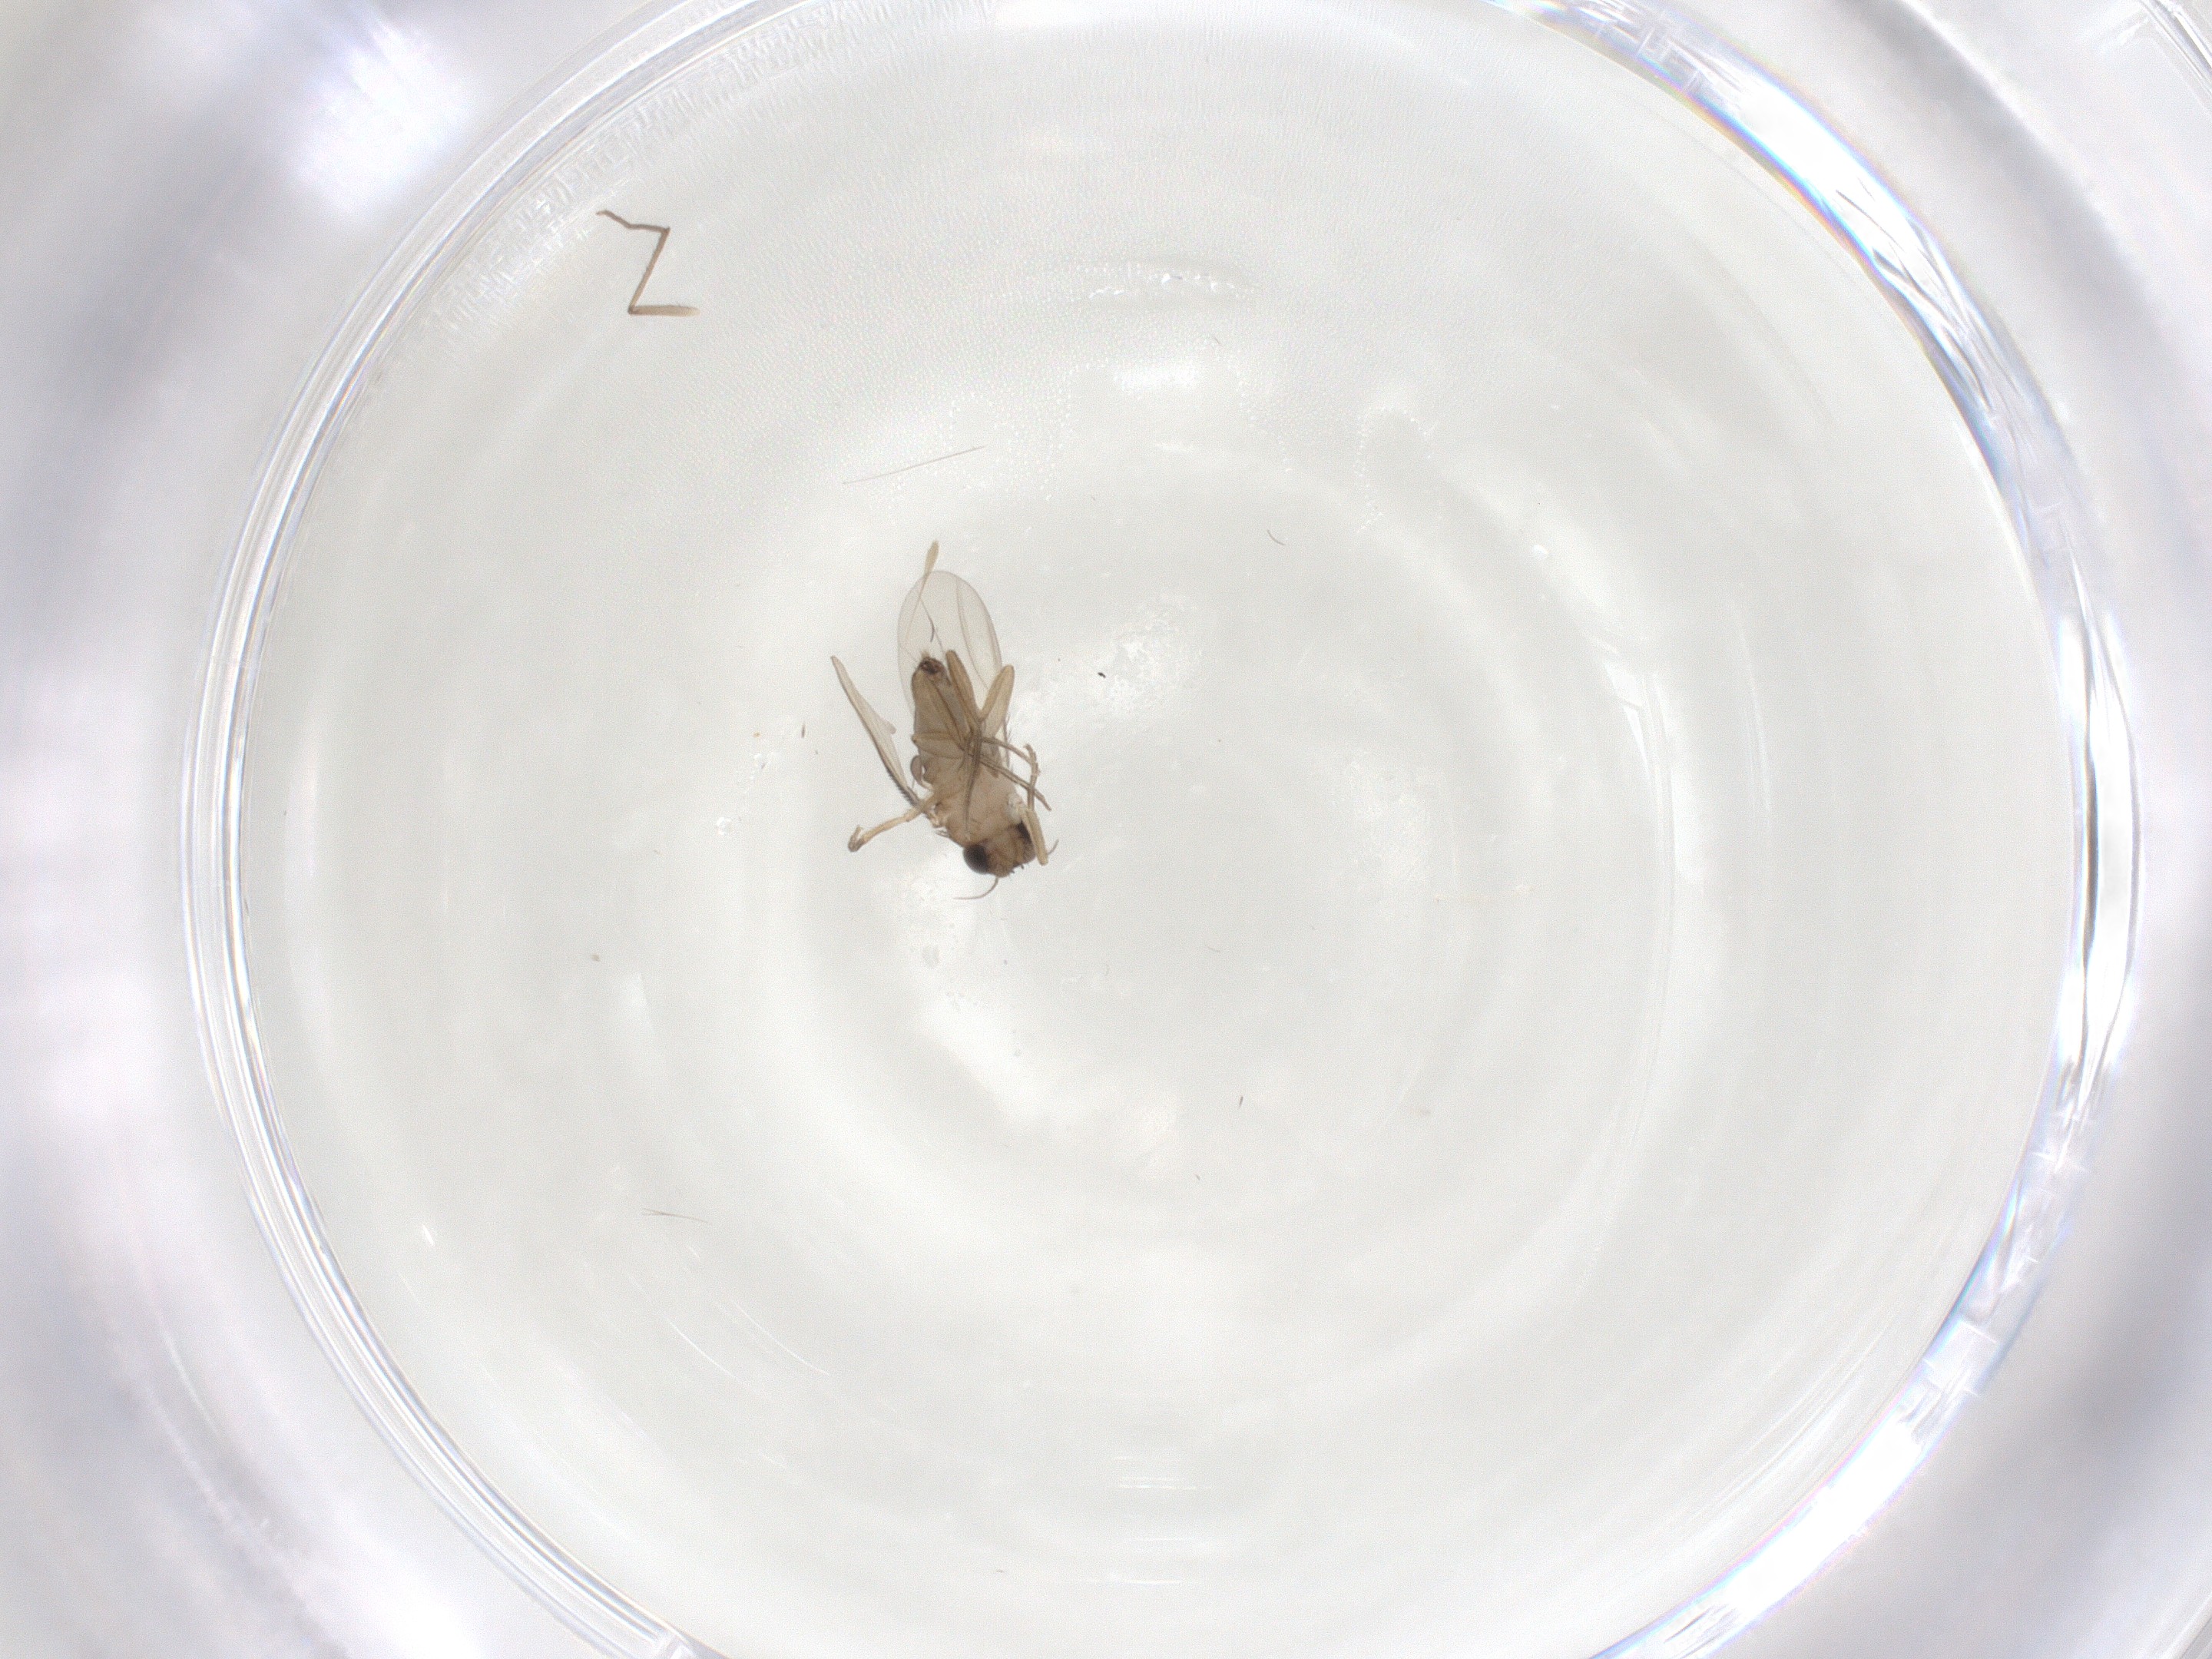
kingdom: Animalia
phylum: Arthropoda
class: Insecta
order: Diptera
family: Phoridae
